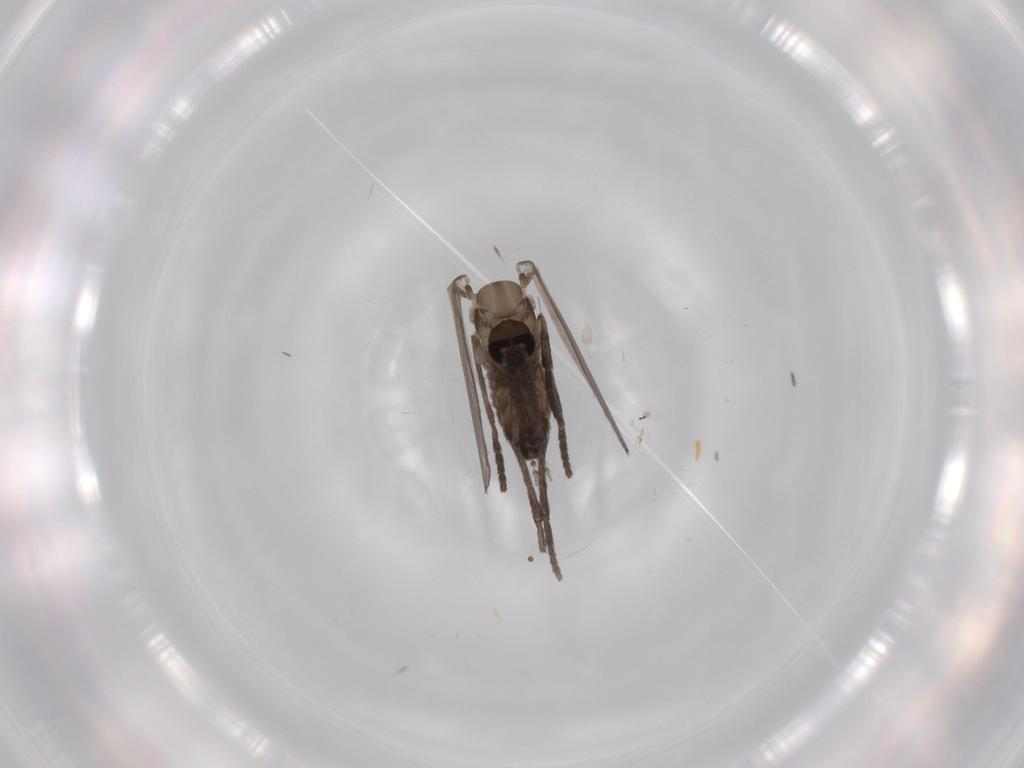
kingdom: Animalia
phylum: Arthropoda
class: Insecta
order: Diptera
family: Psychodidae
